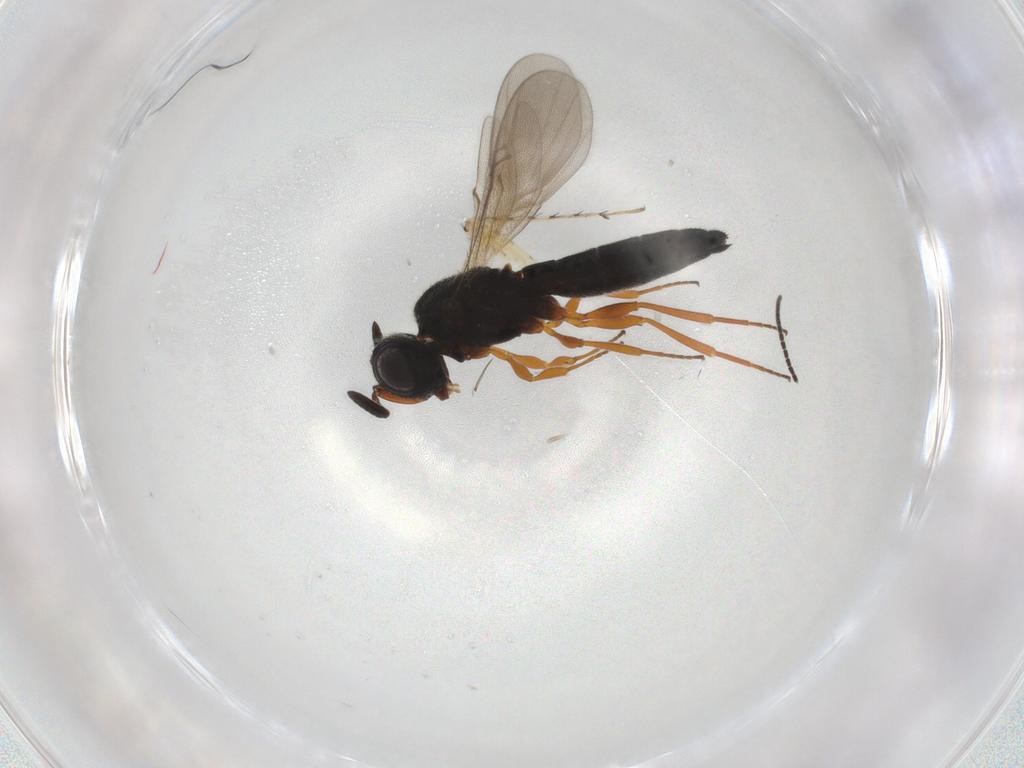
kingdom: Animalia
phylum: Arthropoda
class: Insecta
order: Hymenoptera
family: Scelionidae
